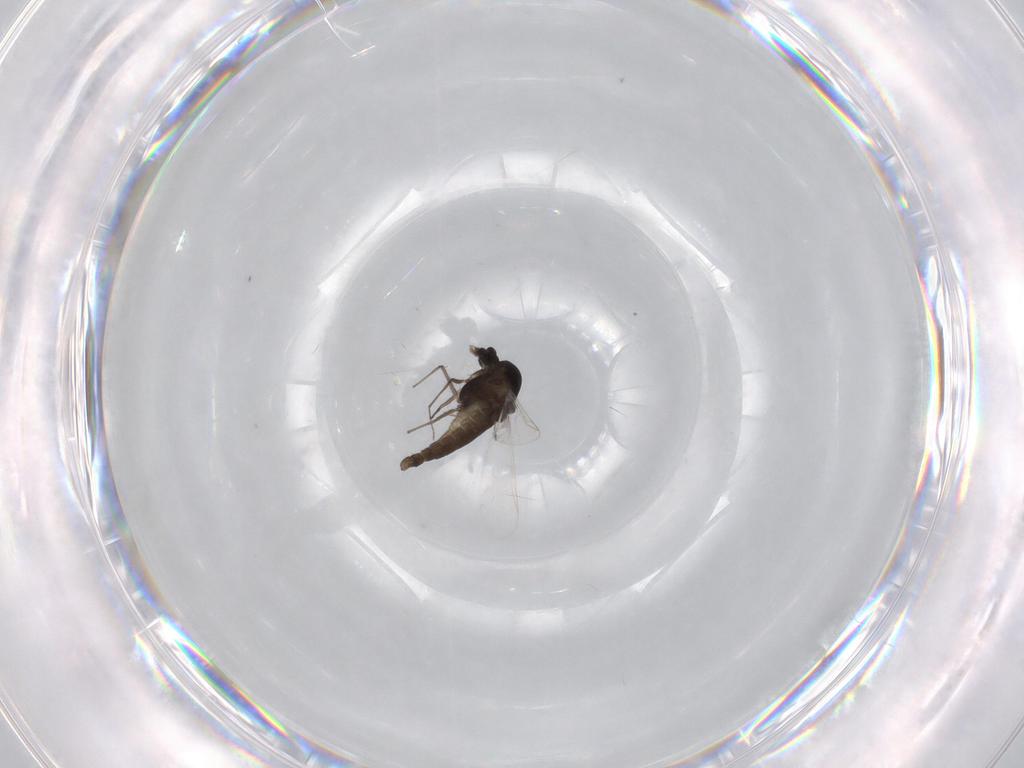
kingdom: Animalia
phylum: Arthropoda
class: Insecta
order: Diptera
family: Chironomidae
